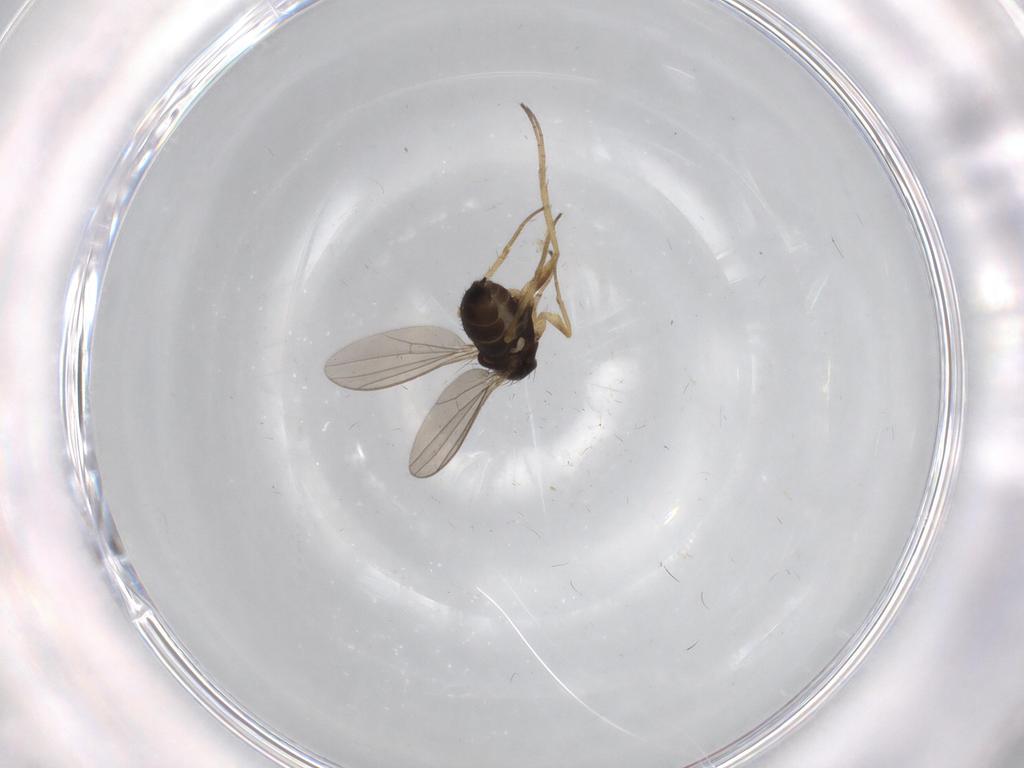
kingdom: Animalia
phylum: Arthropoda
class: Insecta
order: Diptera
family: Dolichopodidae
